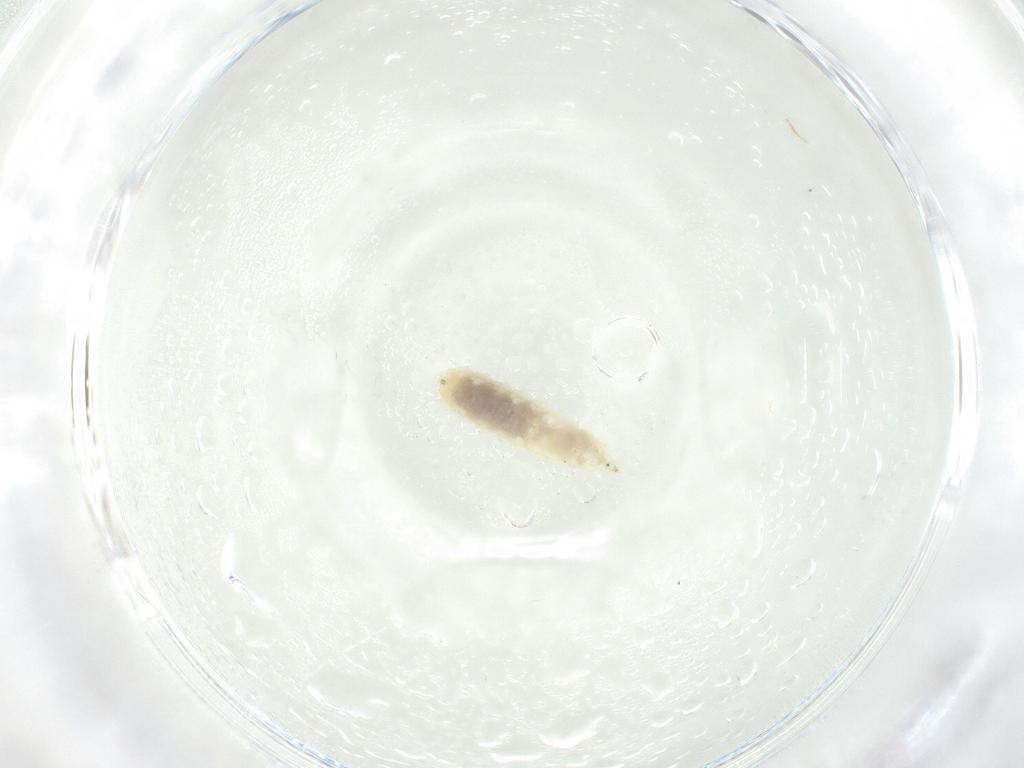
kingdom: Animalia
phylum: Arthropoda
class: Insecta
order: Diptera
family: Cecidomyiidae
